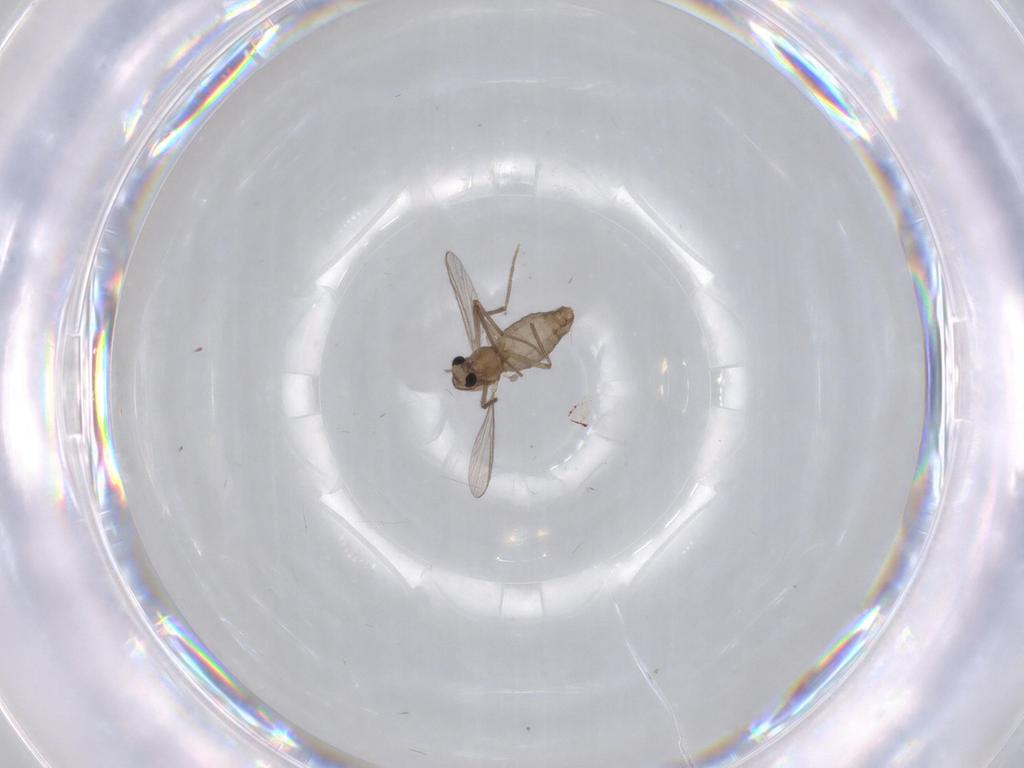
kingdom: Animalia
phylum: Arthropoda
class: Insecta
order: Diptera
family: Chironomidae
